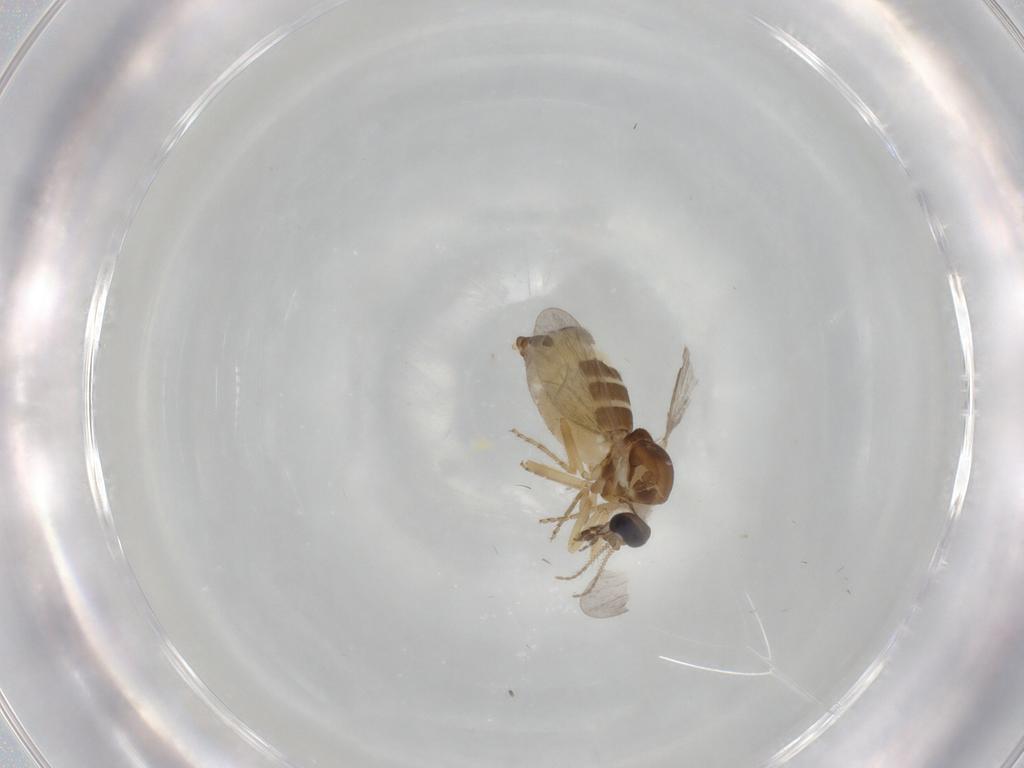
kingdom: Animalia
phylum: Arthropoda
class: Insecta
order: Diptera
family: Ceratopogonidae
